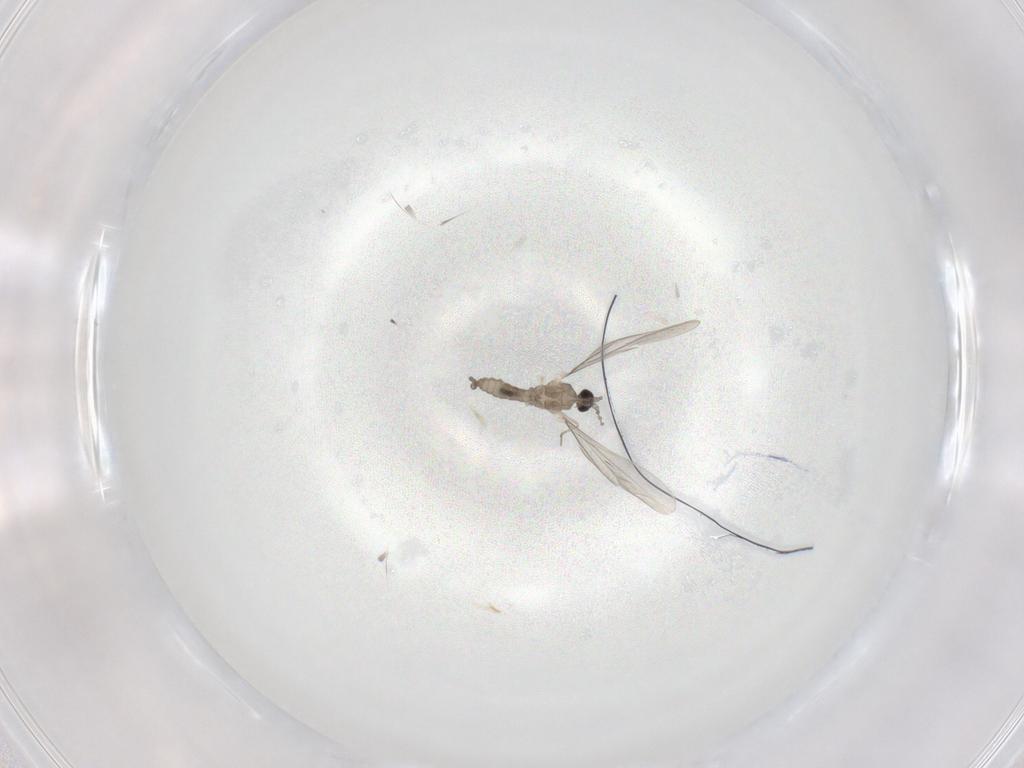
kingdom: Animalia
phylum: Arthropoda
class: Insecta
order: Diptera
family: Cecidomyiidae
